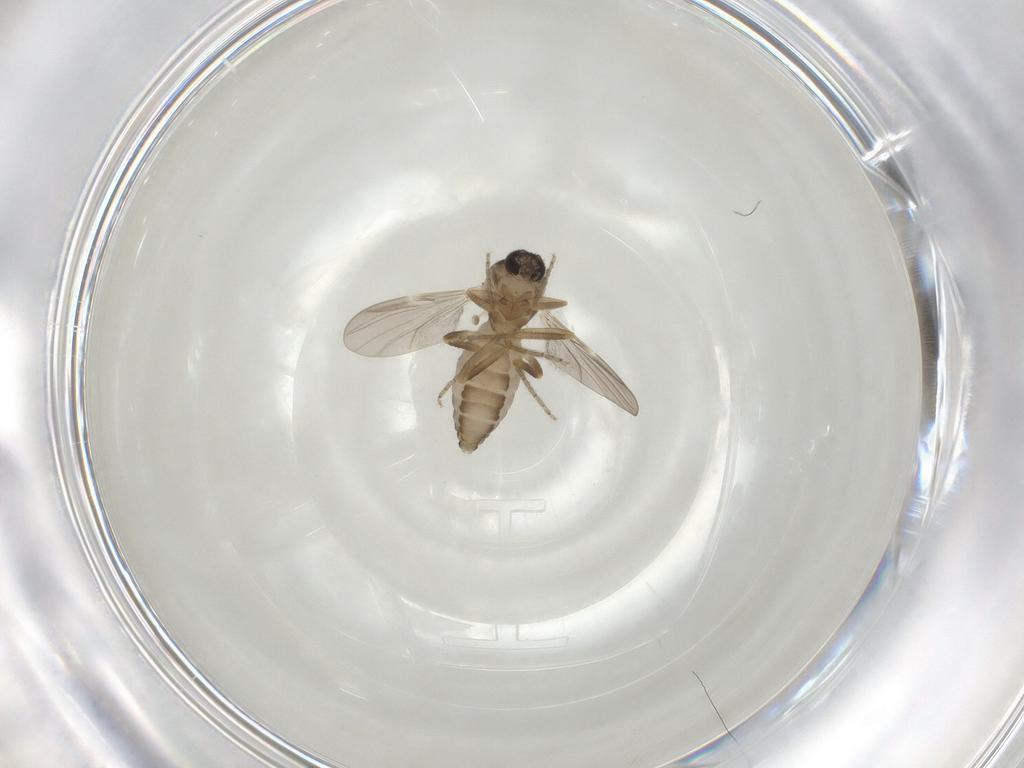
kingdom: Animalia
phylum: Arthropoda
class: Insecta
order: Diptera
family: Ceratopogonidae
